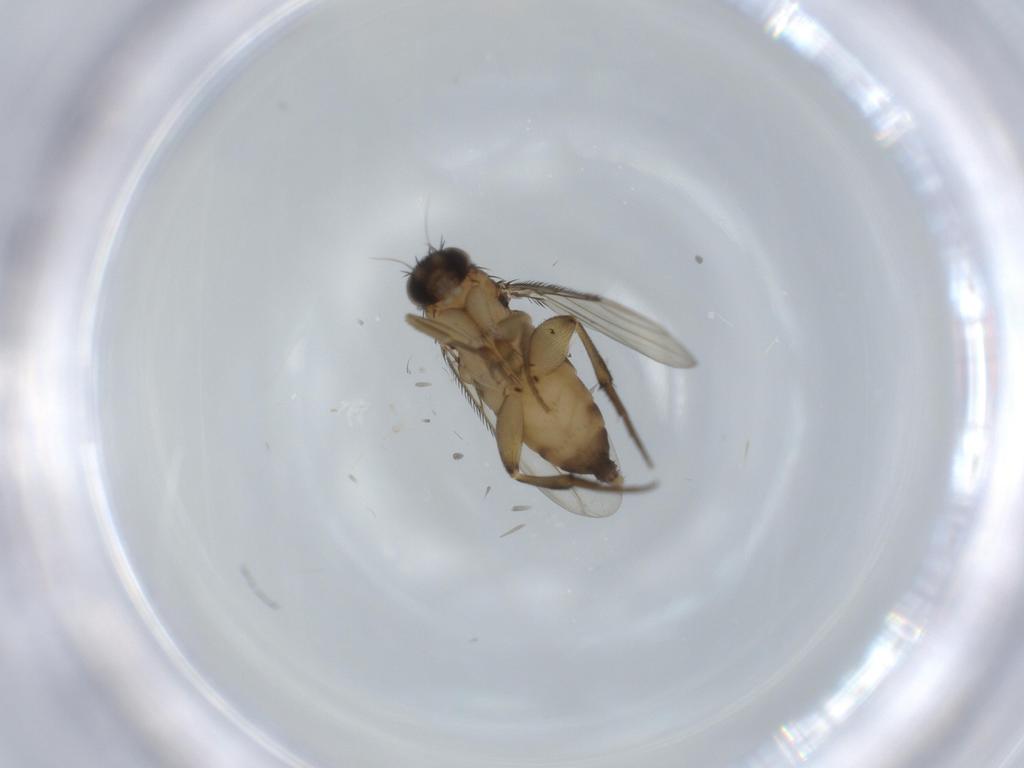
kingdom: Animalia
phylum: Arthropoda
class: Insecta
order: Diptera
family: Phoridae
